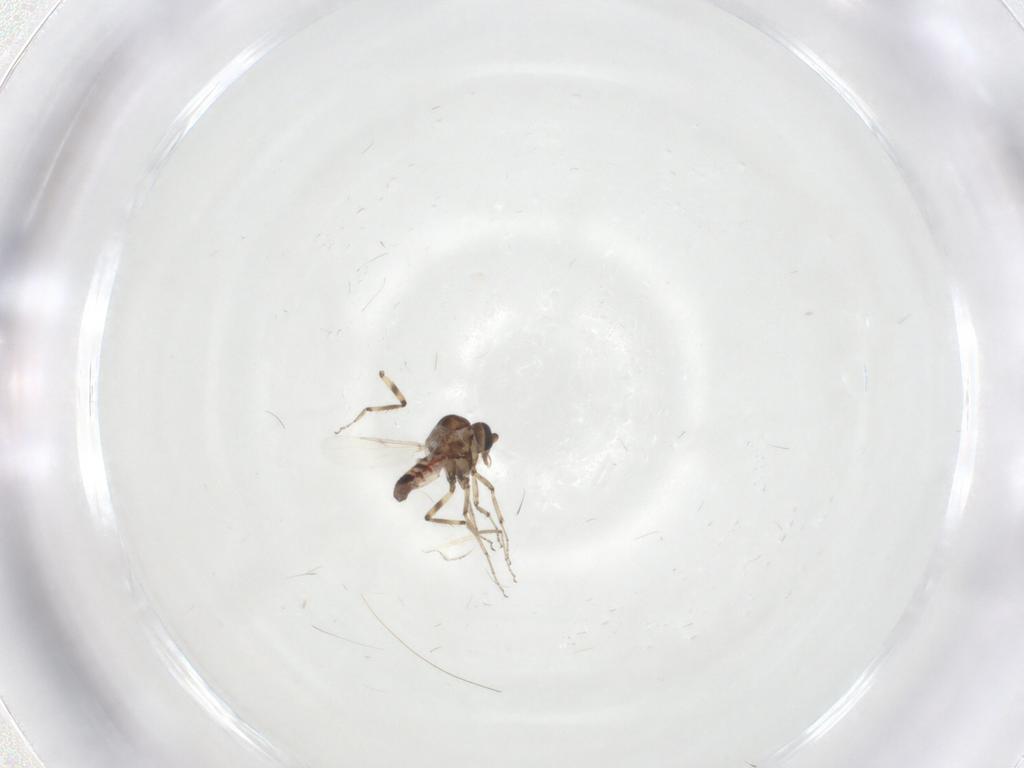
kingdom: Animalia
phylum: Arthropoda
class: Insecta
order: Diptera
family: Ceratopogonidae
